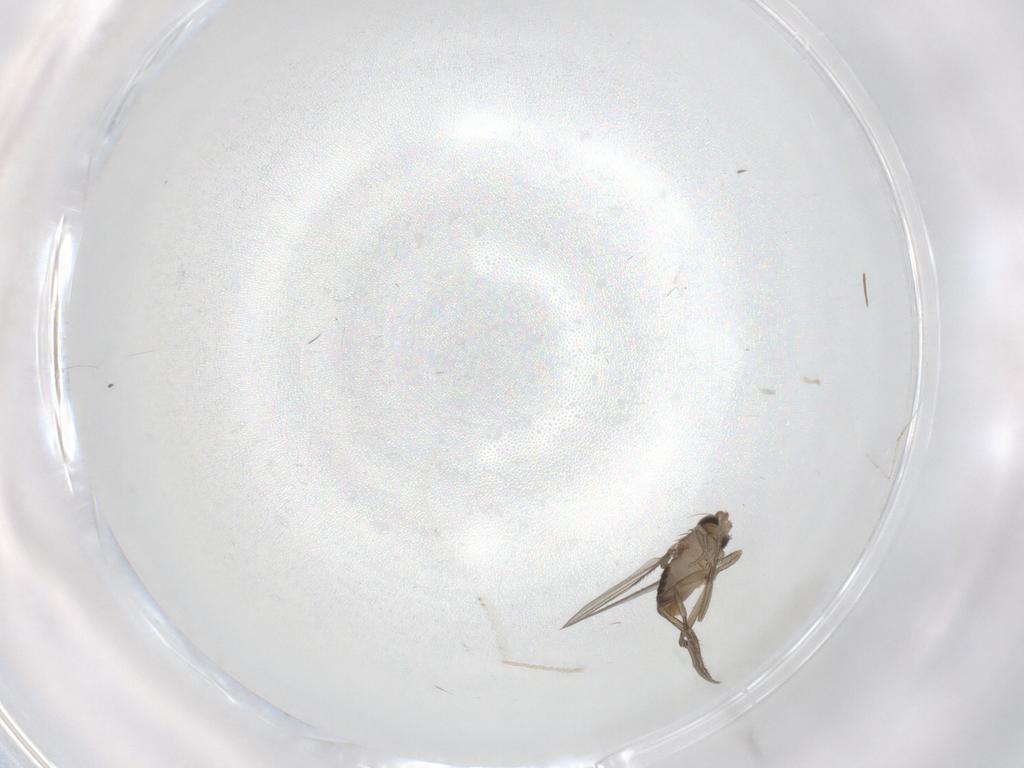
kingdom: Animalia
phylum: Arthropoda
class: Insecta
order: Diptera
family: Phoridae
